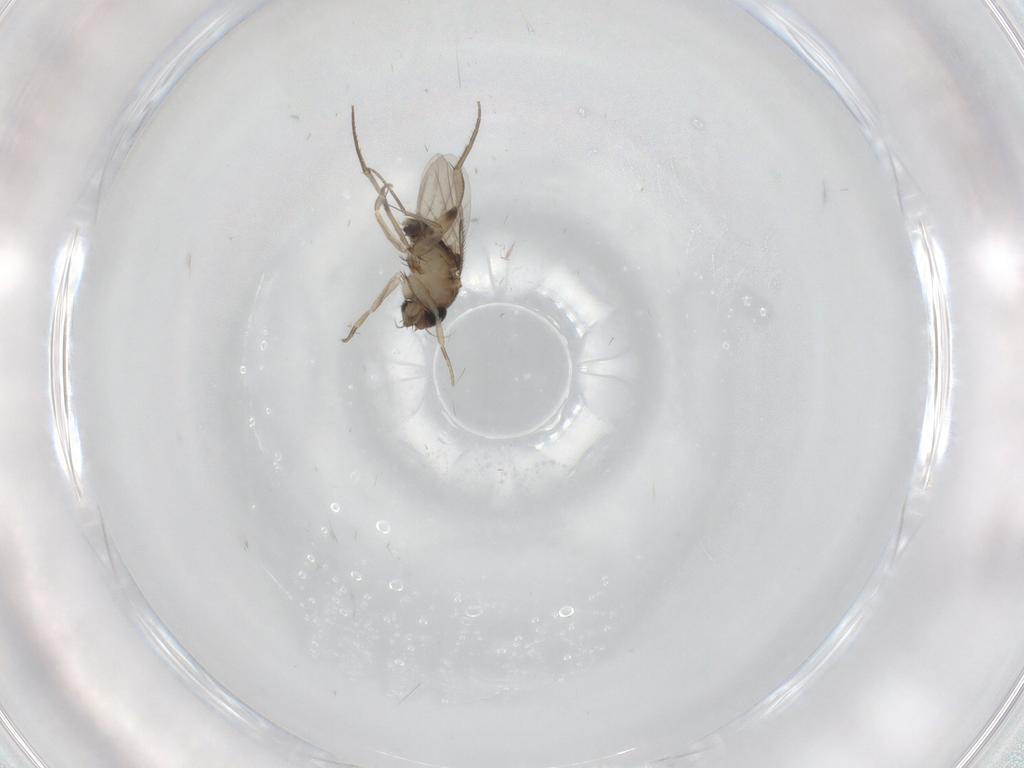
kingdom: Animalia
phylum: Arthropoda
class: Insecta
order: Diptera
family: Phoridae
